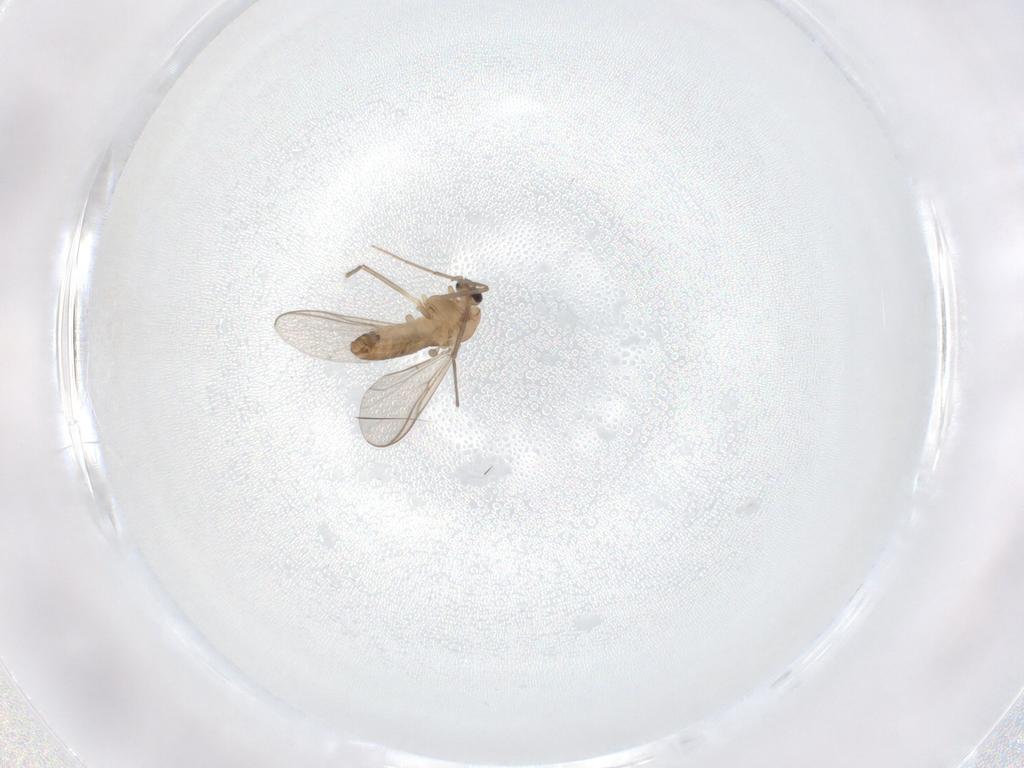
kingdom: Animalia
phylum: Arthropoda
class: Insecta
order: Diptera
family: Chironomidae
